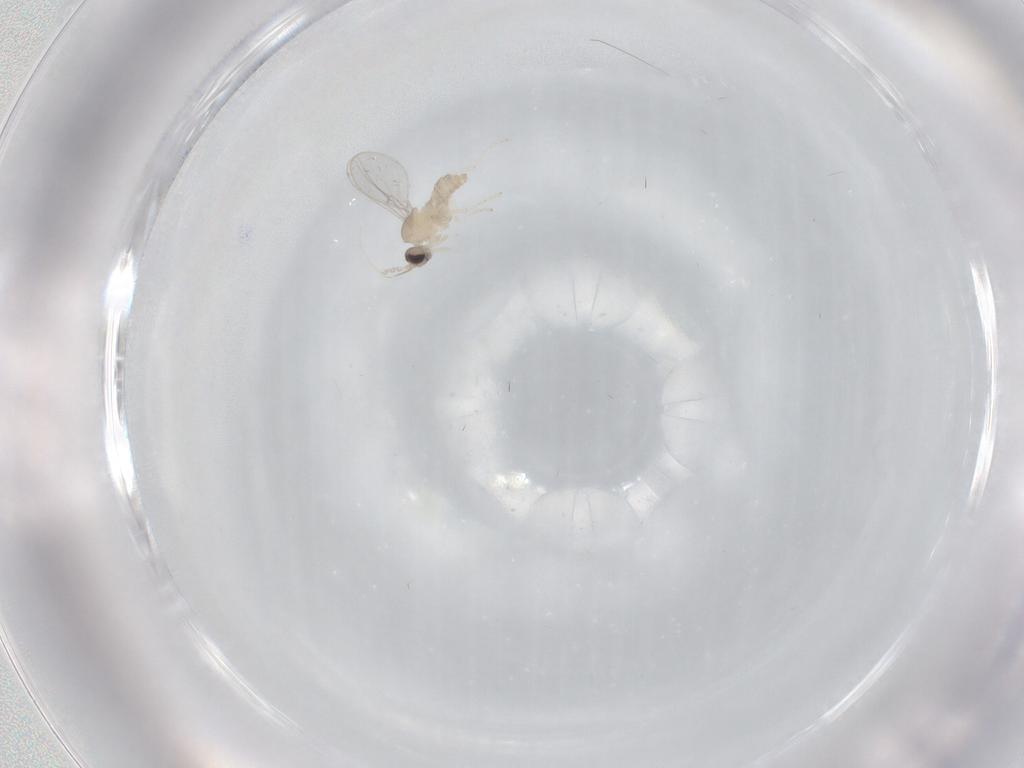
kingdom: Animalia
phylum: Arthropoda
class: Insecta
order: Diptera
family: Cecidomyiidae
